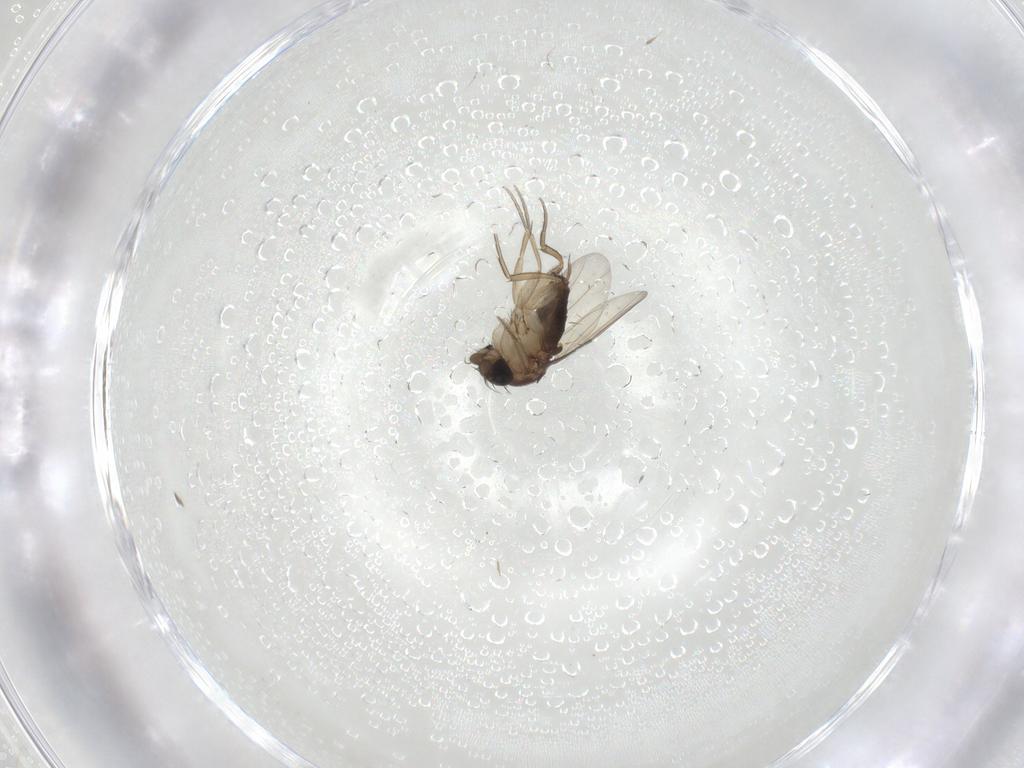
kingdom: Animalia
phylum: Arthropoda
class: Insecta
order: Diptera
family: Phoridae
